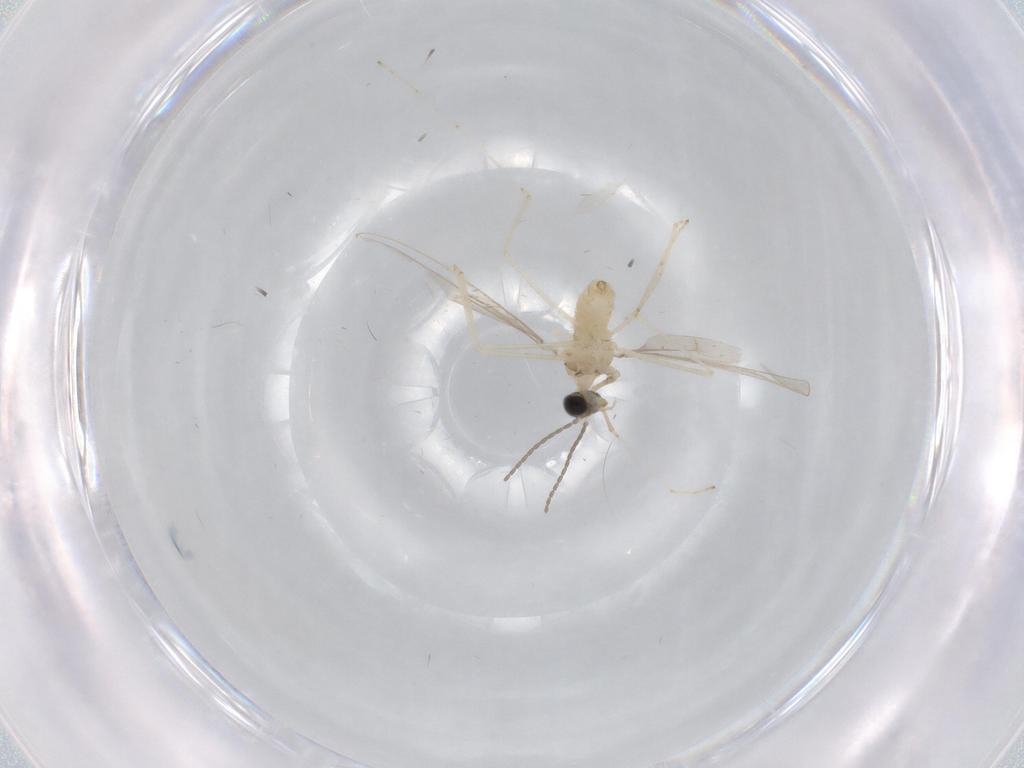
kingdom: Animalia
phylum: Arthropoda
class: Insecta
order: Diptera
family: Cecidomyiidae
